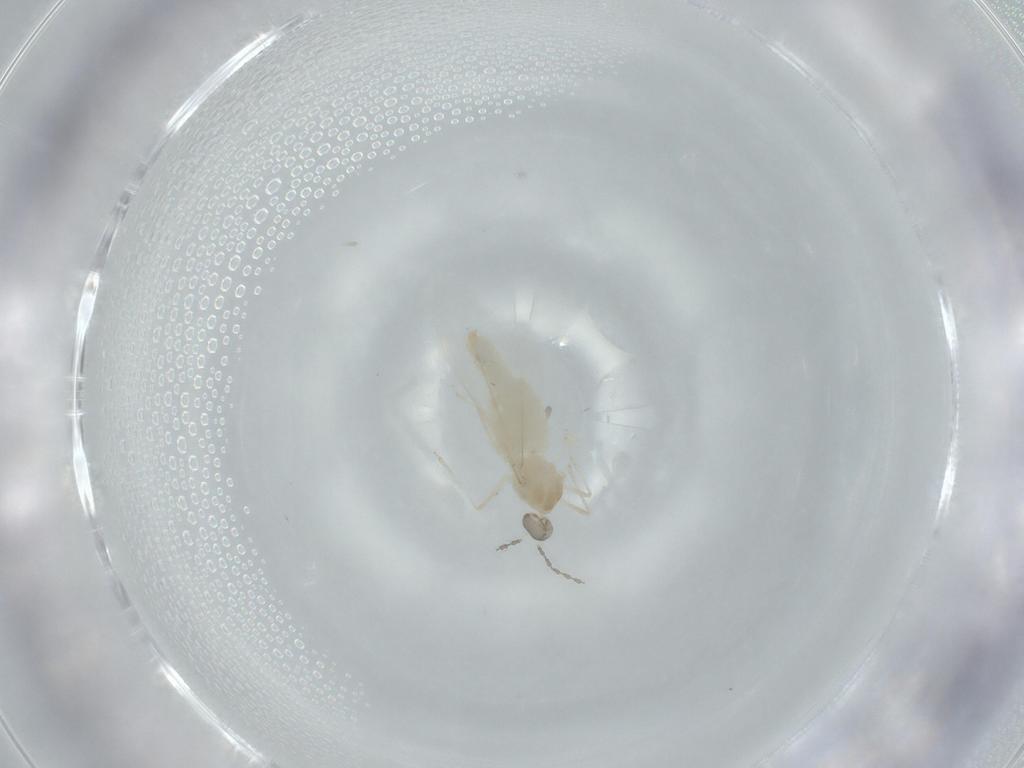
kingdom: Animalia
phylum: Arthropoda
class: Insecta
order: Diptera
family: Cecidomyiidae
